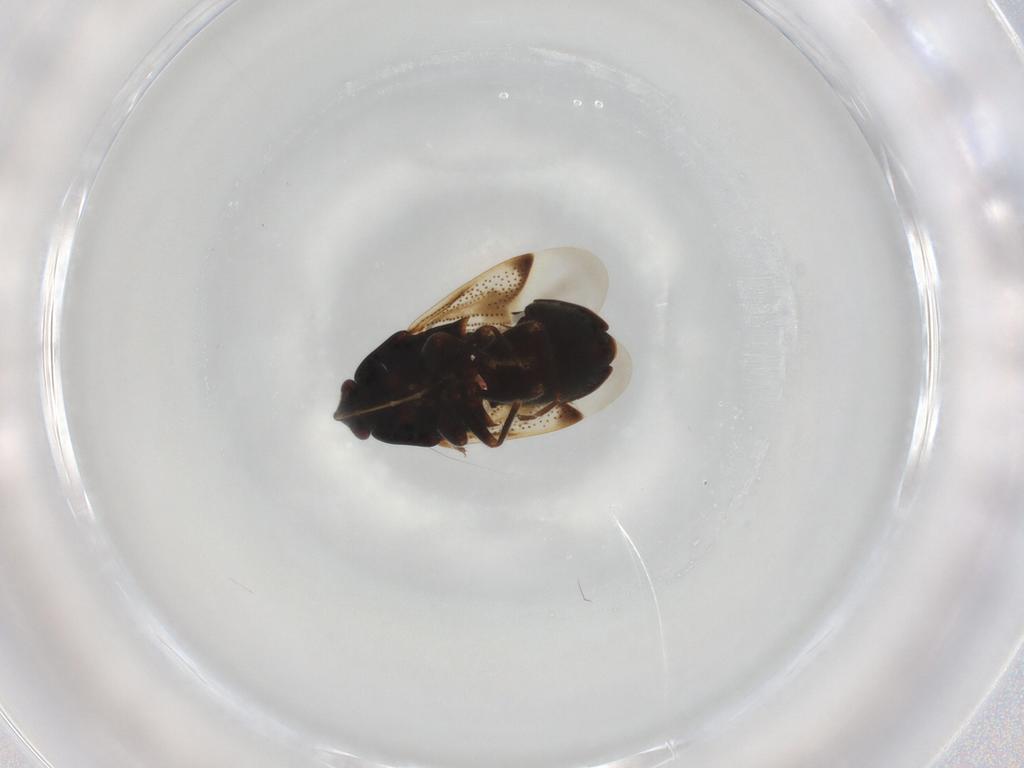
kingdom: Animalia
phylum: Arthropoda
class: Insecta
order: Hemiptera
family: Rhyparochromidae
